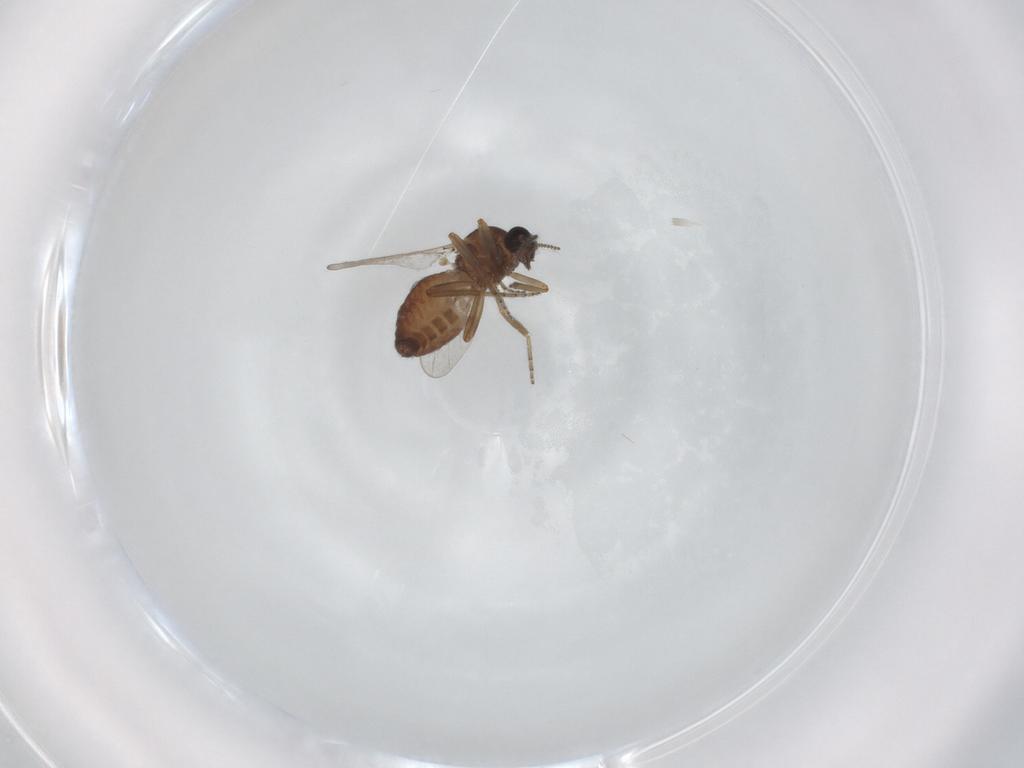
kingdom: Animalia
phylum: Arthropoda
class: Insecta
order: Diptera
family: Ceratopogonidae
